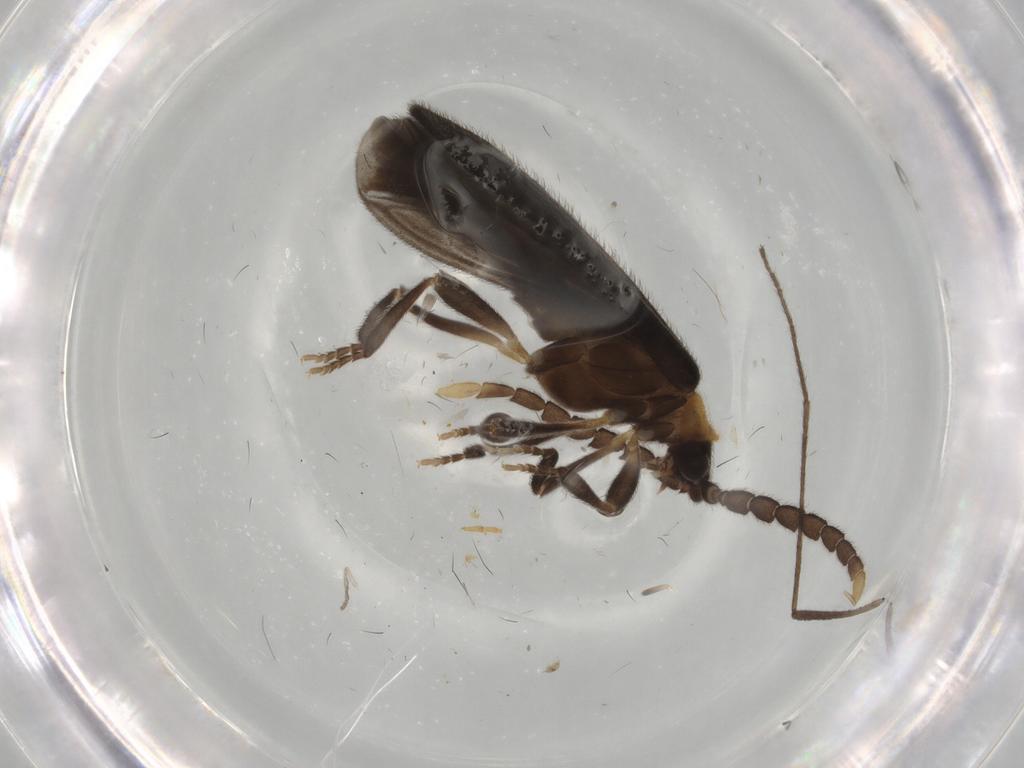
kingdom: Animalia
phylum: Arthropoda
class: Insecta
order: Coleoptera
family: Lycidae
